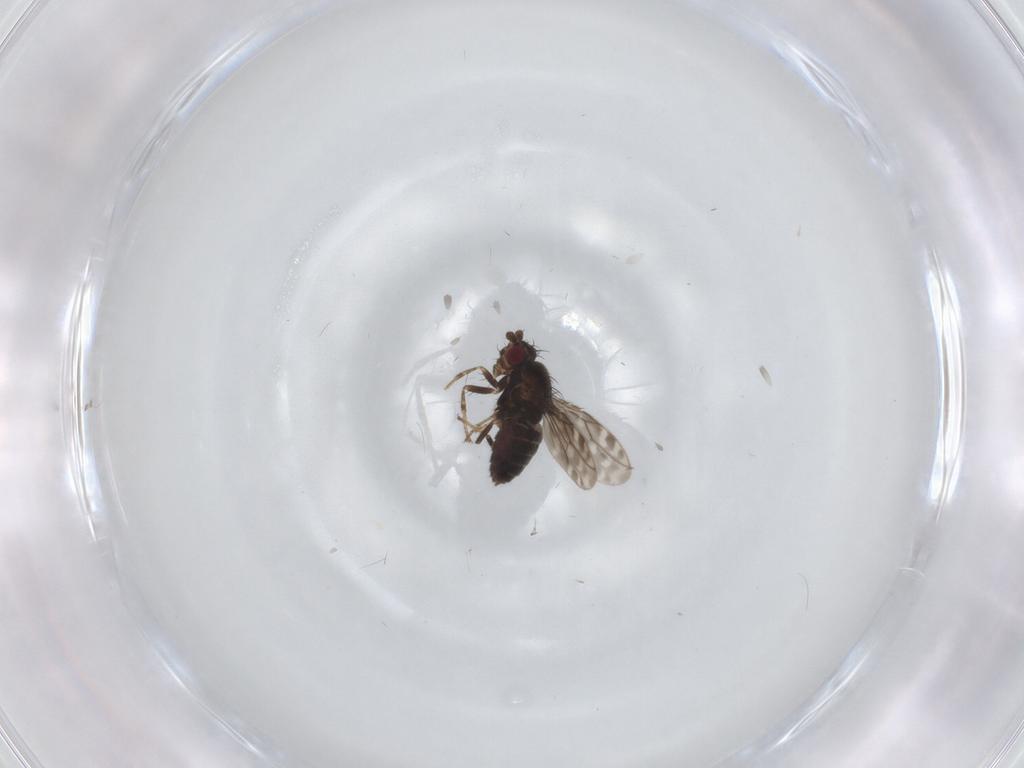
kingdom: Animalia
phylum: Arthropoda
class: Insecta
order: Diptera
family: Sphaeroceridae
